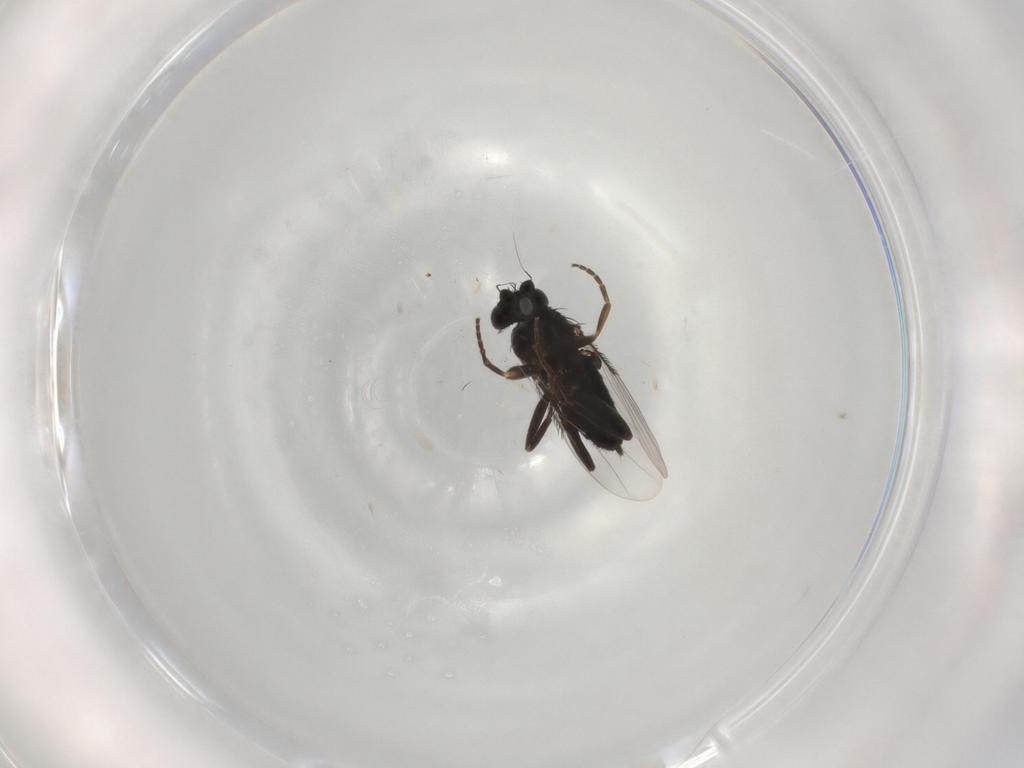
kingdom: Animalia
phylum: Arthropoda
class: Insecta
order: Diptera
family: Phoridae
